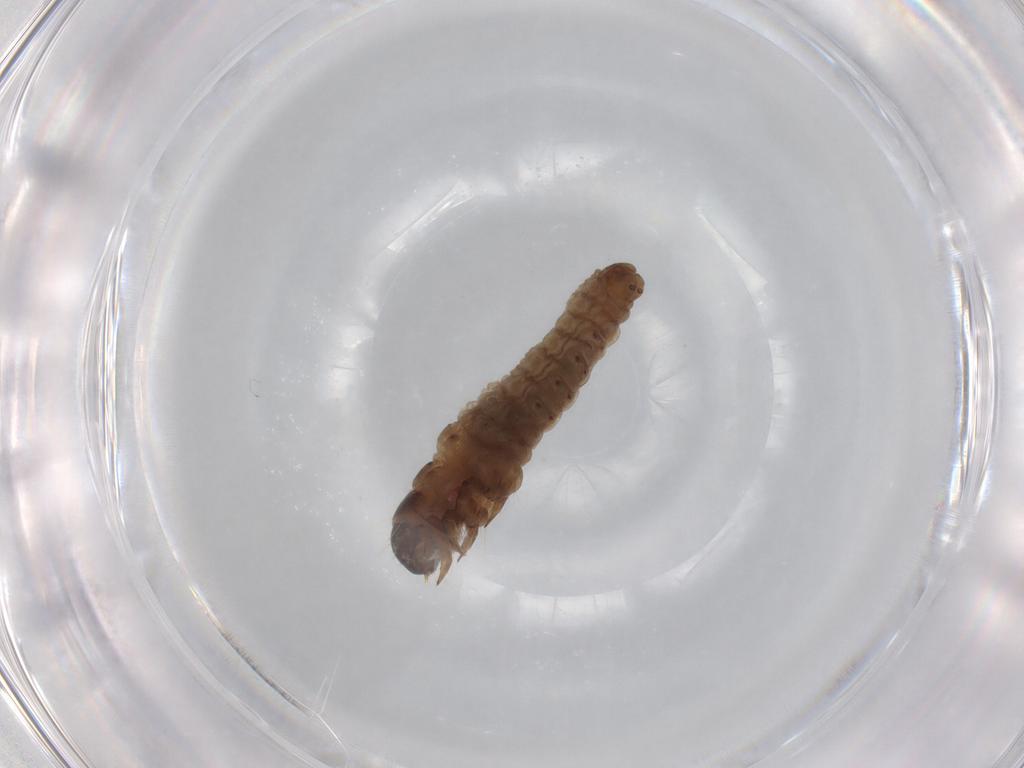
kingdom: Animalia
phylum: Arthropoda
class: Insecta
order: Lepidoptera
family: Psychidae
